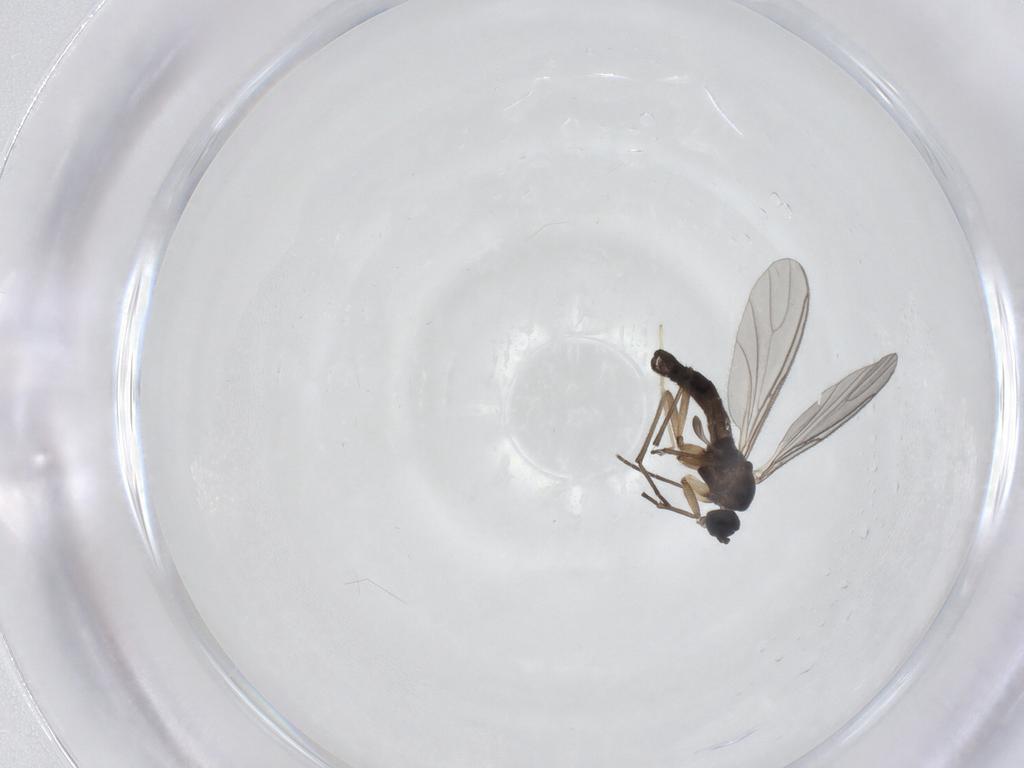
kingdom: Animalia
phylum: Arthropoda
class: Insecta
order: Diptera
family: Sciaridae
